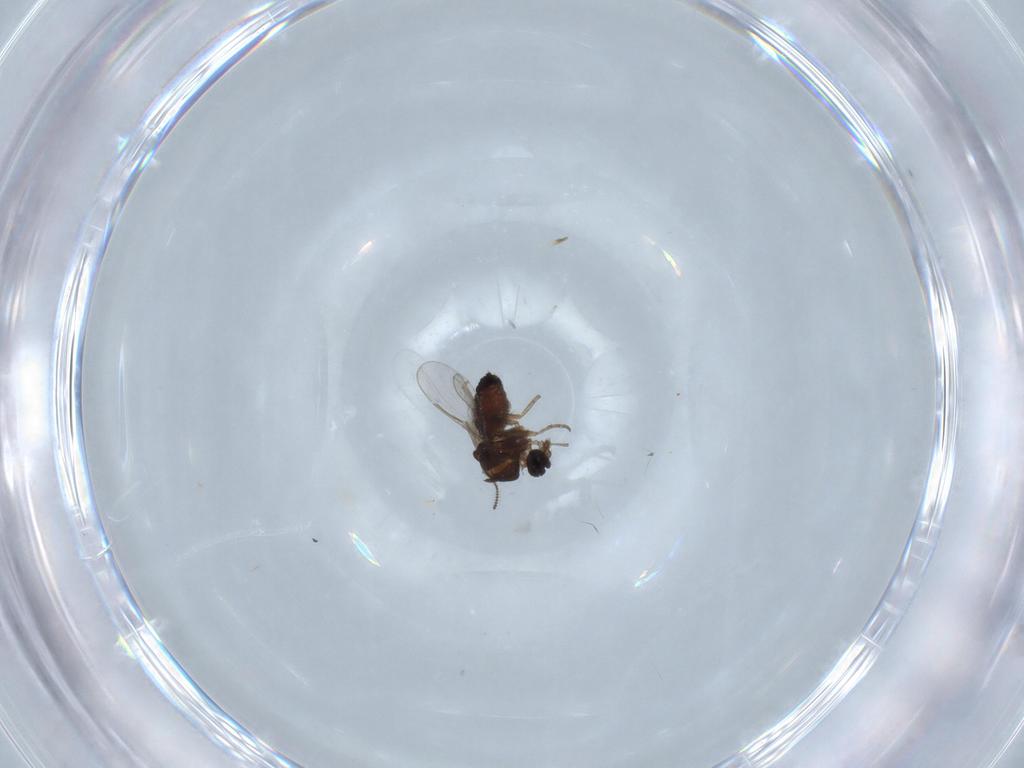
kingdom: Animalia
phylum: Arthropoda
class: Insecta
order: Diptera
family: Ceratopogonidae
